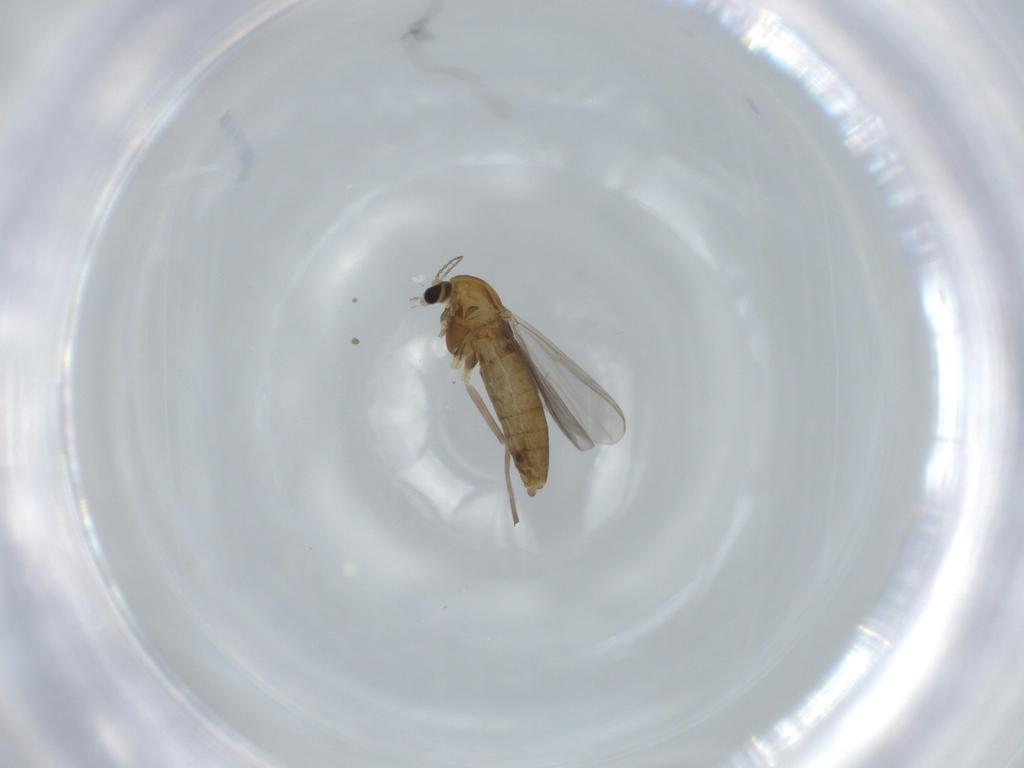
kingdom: Animalia
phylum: Arthropoda
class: Insecta
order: Diptera
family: Chironomidae
